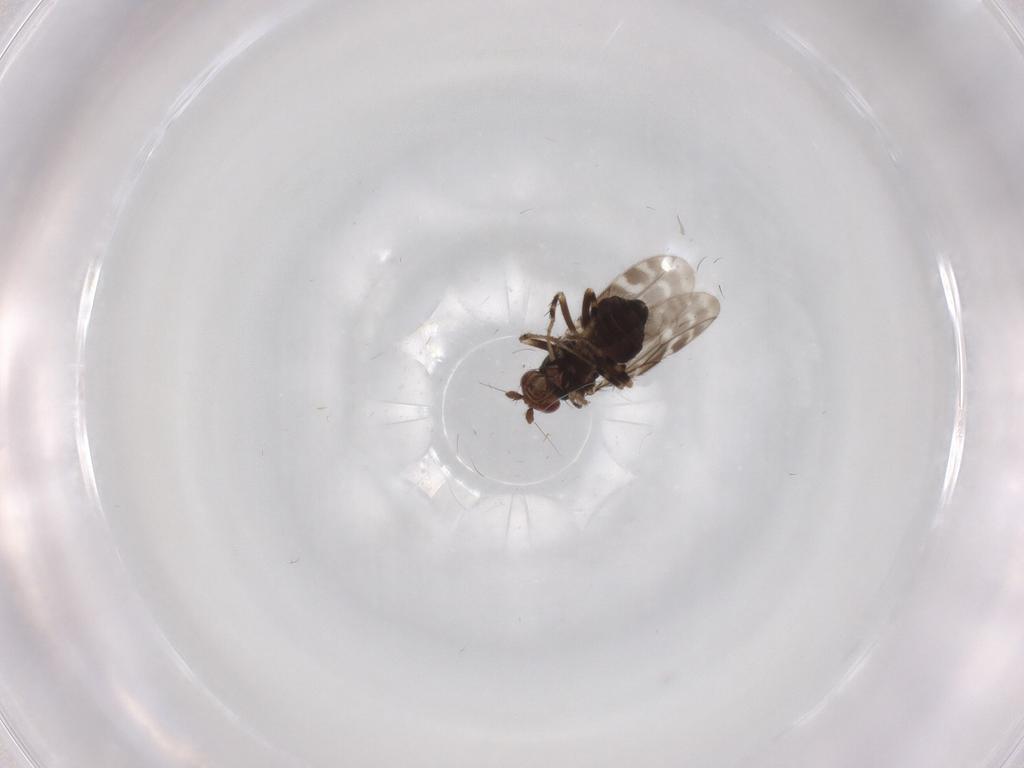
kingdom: Animalia
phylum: Arthropoda
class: Insecta
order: Diptera
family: Sphaeroceridae
